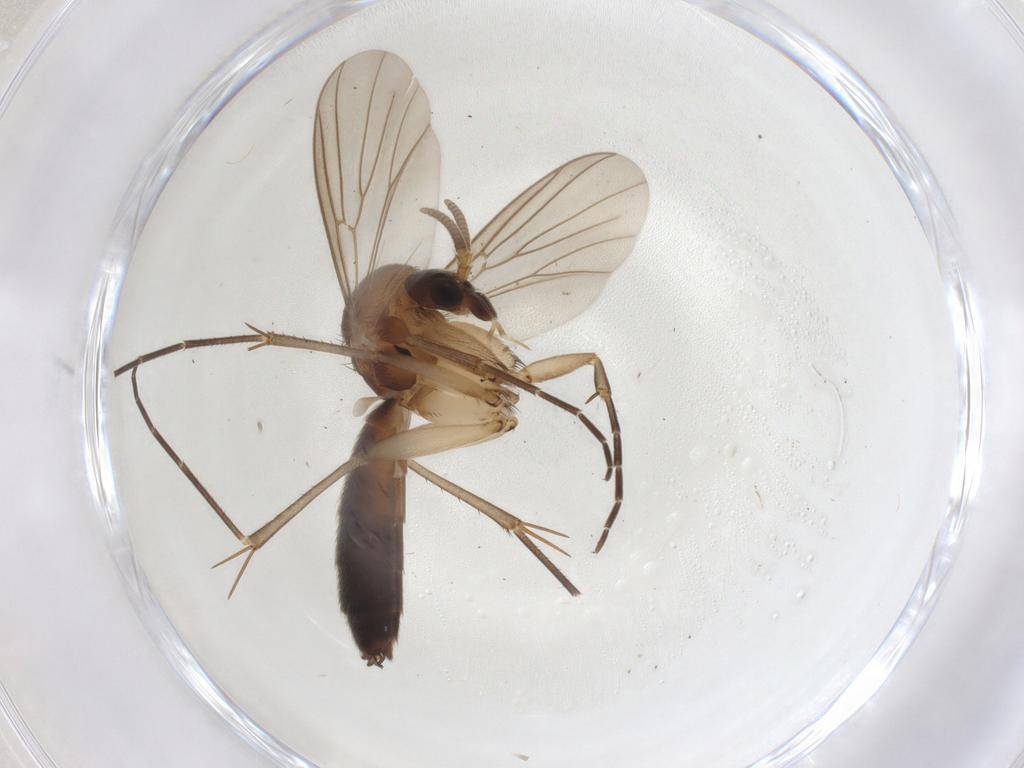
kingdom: Animalia
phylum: Arthropoda
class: Insecta
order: Diptera
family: Mycetophilidae
